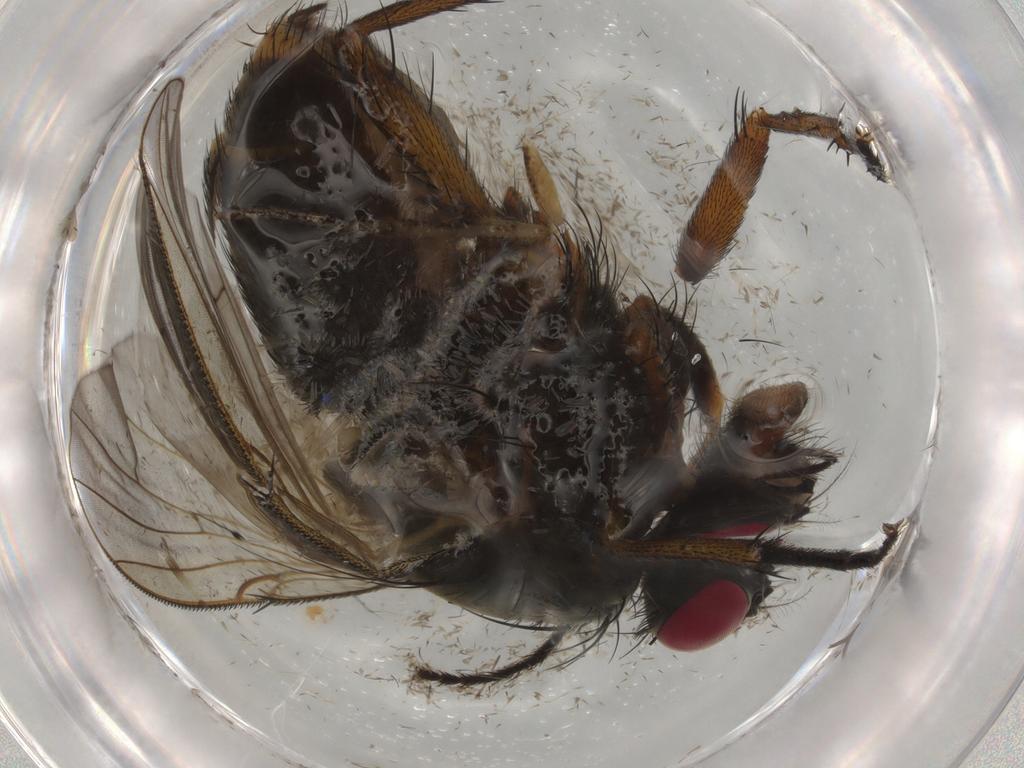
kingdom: Animalia
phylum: Arthropoda
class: Insecta
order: Diptera
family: Muscidae
